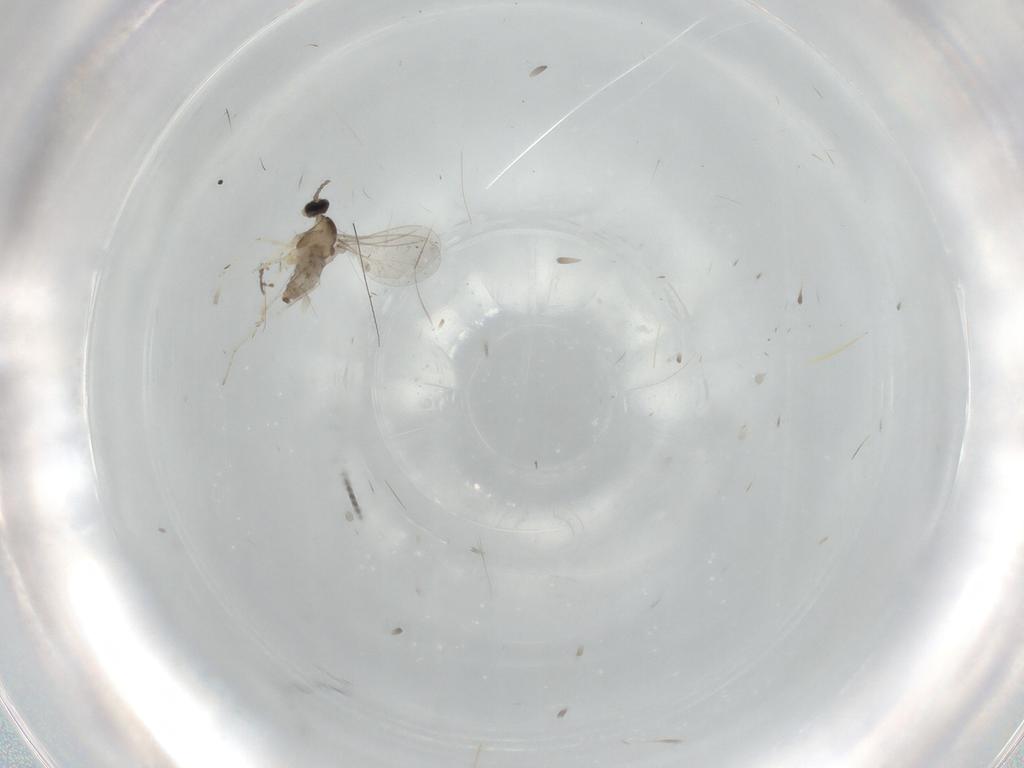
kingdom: Animalia
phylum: Arthropoda
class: Insecta
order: Diptera
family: Cecidomyiidae
